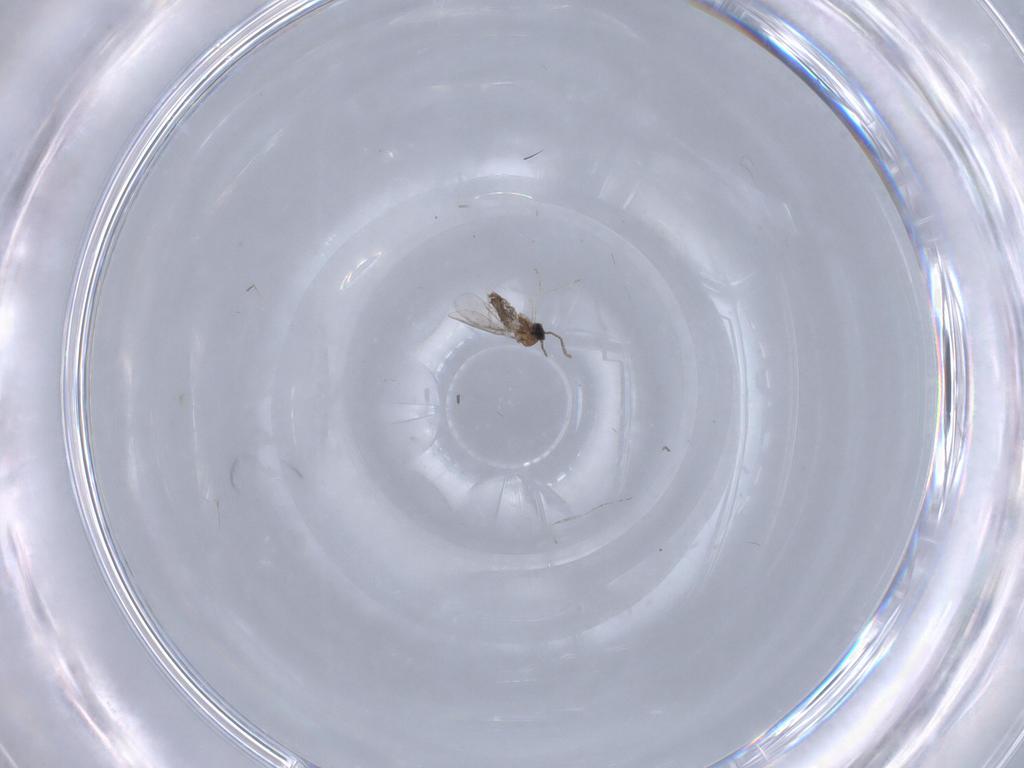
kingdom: Animalia
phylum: Arthropoda
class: Insecta
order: Diptera
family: Cecidomyiidae
